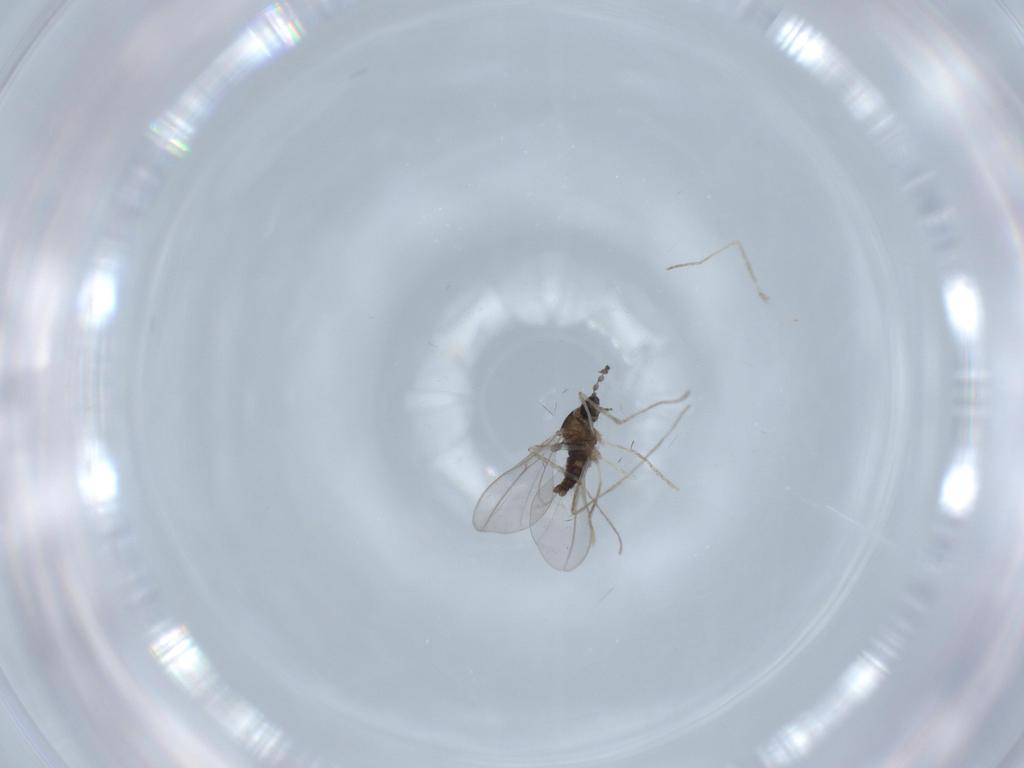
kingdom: Animalia
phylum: Arthropoda
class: Insecta
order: Diptera
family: Cecidomyiidae
